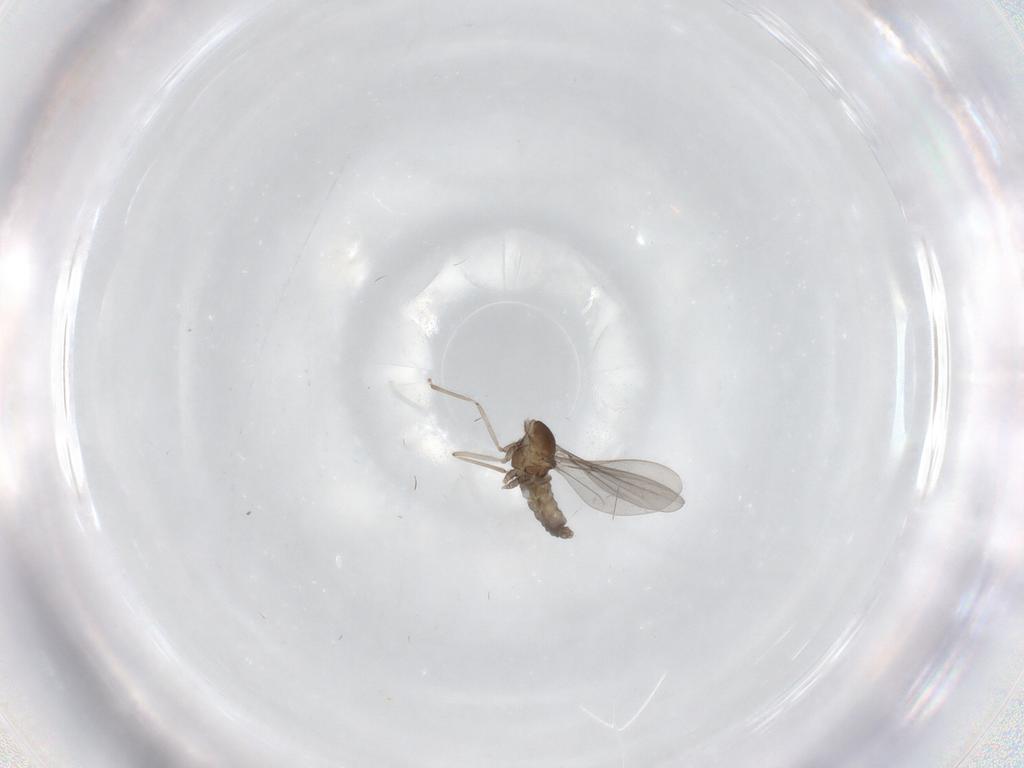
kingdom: Animalia
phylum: Arthropoda
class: Insecta
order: Diptera
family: Cecidomyiidae
